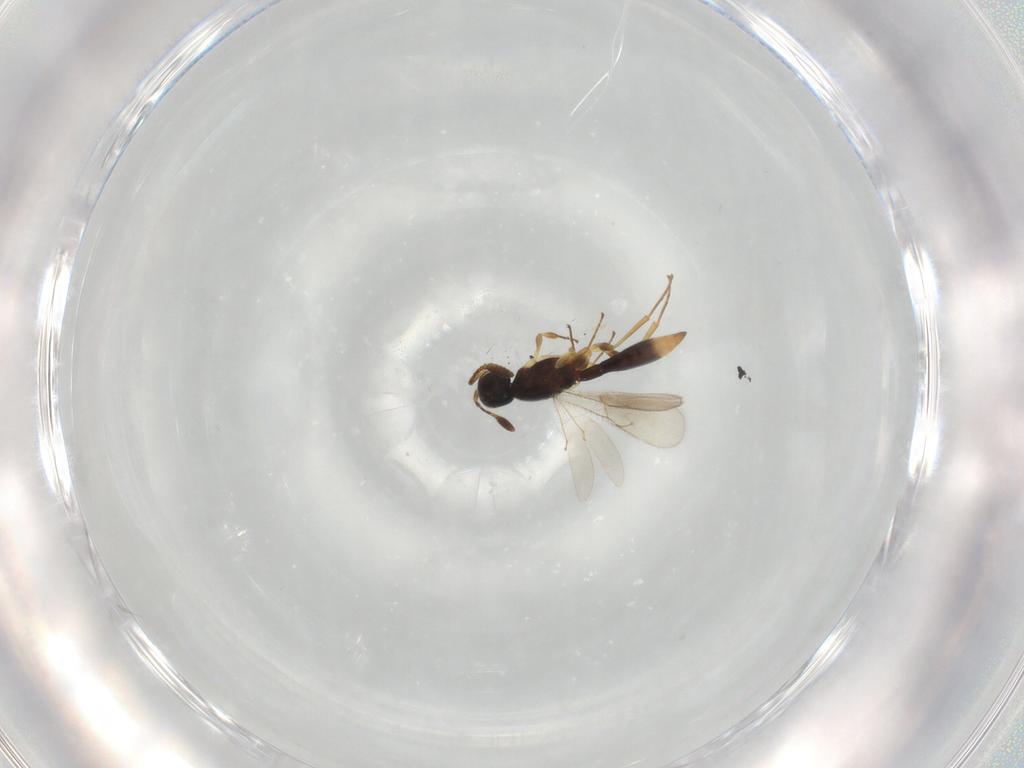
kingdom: Animalia
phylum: Arthropoda
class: Insecta
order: Hymenoptera
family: Scelionidae
